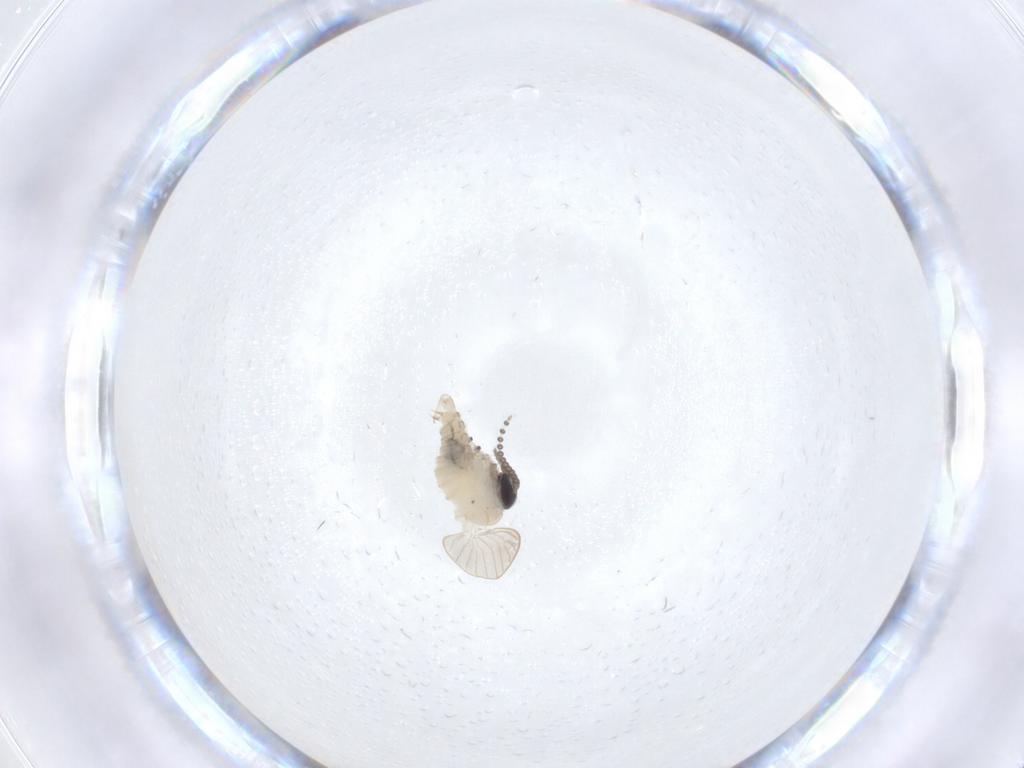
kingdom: Animalia
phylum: Arthropoda
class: Insecta
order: Diptera
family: Psychodidae
